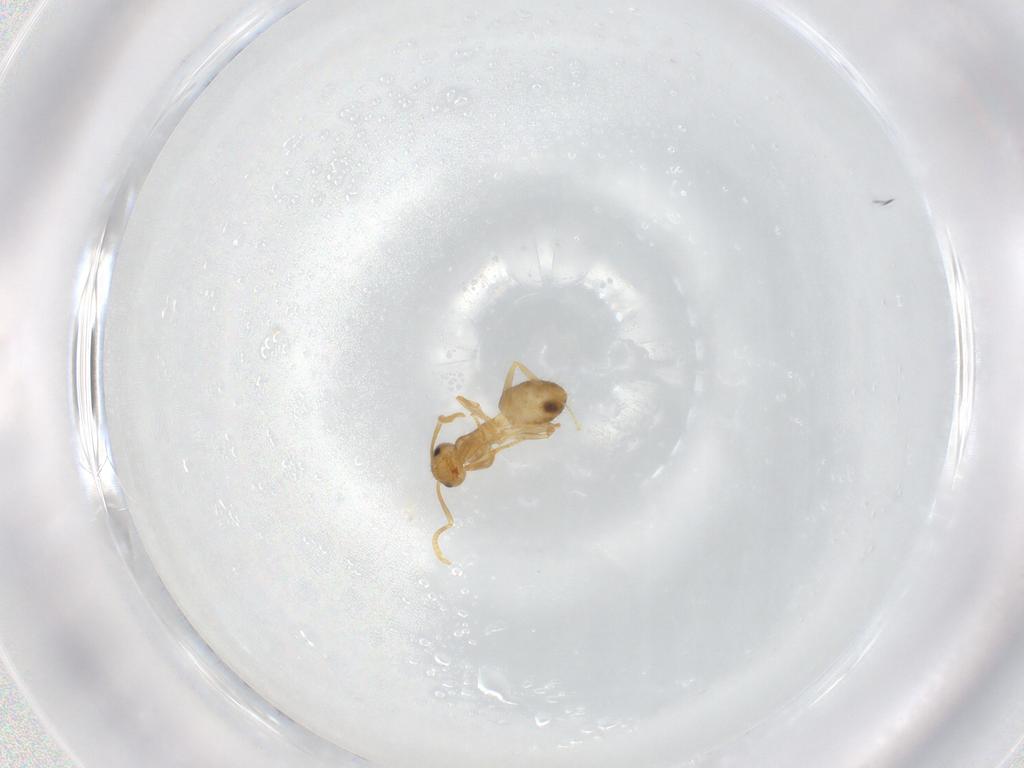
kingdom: Animalia
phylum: Arthropoda
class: Insecta
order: Hymenoptera
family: Formicidae
